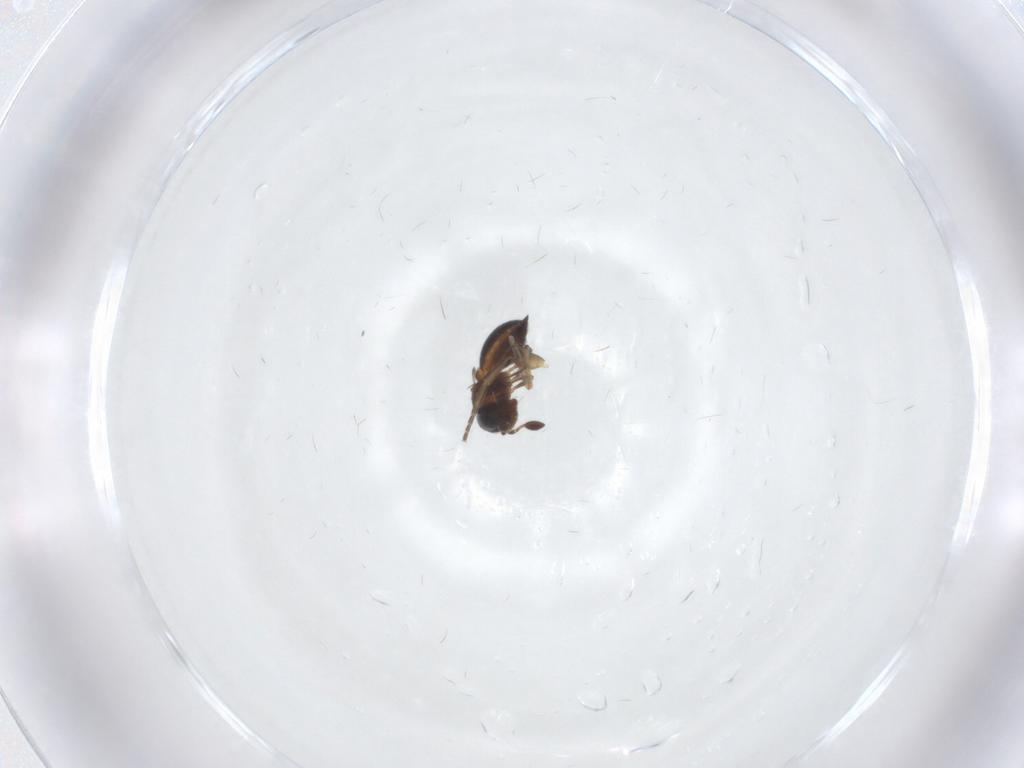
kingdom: Animalia
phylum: Arthropoda
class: Insecta
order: Hymenoptera
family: Scelionidae
